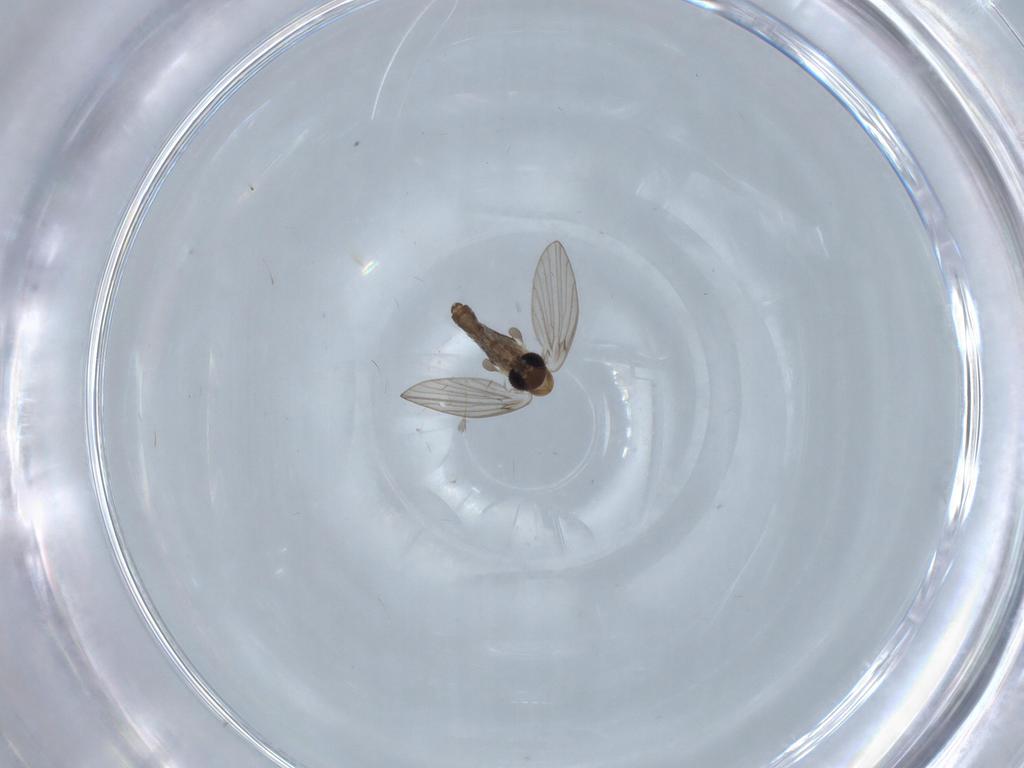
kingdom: Animalia
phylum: Arthropoda
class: Insecta
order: Diptera
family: Psychodidae
